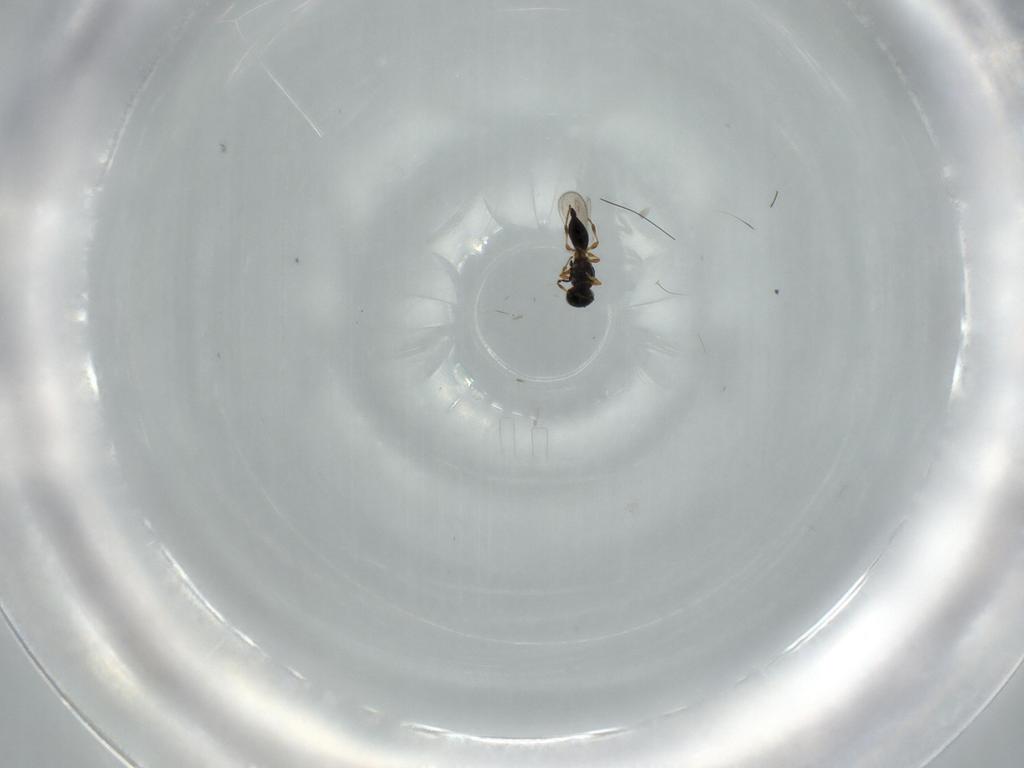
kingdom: Animalia
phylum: Arthropoda
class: Insecta
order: Hymenoptera
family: Platygastridae
